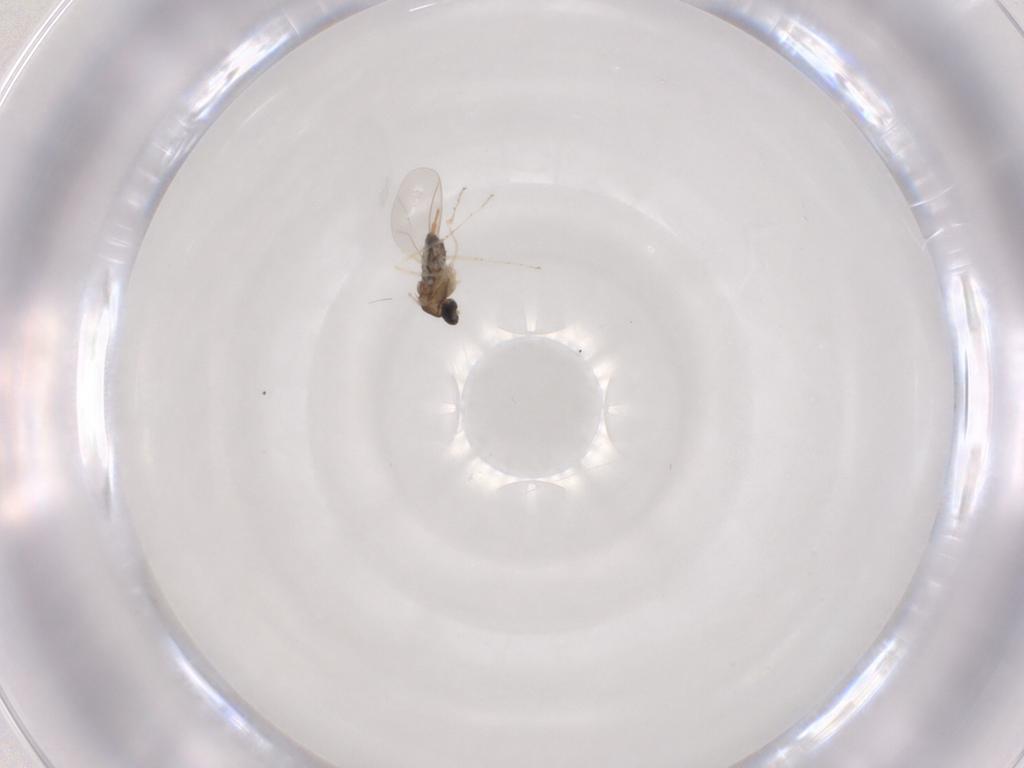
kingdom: Animalia
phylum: Arthropoda
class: Insecta
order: Diptera
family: Cecidomyiidae
